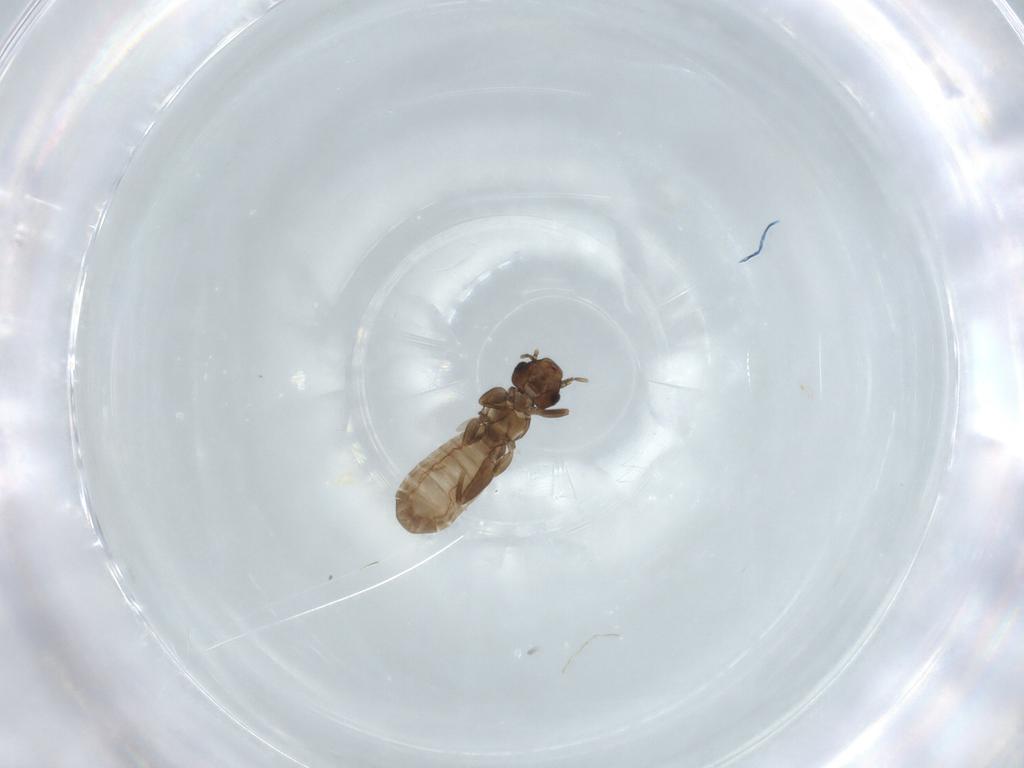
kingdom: Animalia
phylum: Arthropoda
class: Insecta
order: Psocodea
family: Liposcelididae
